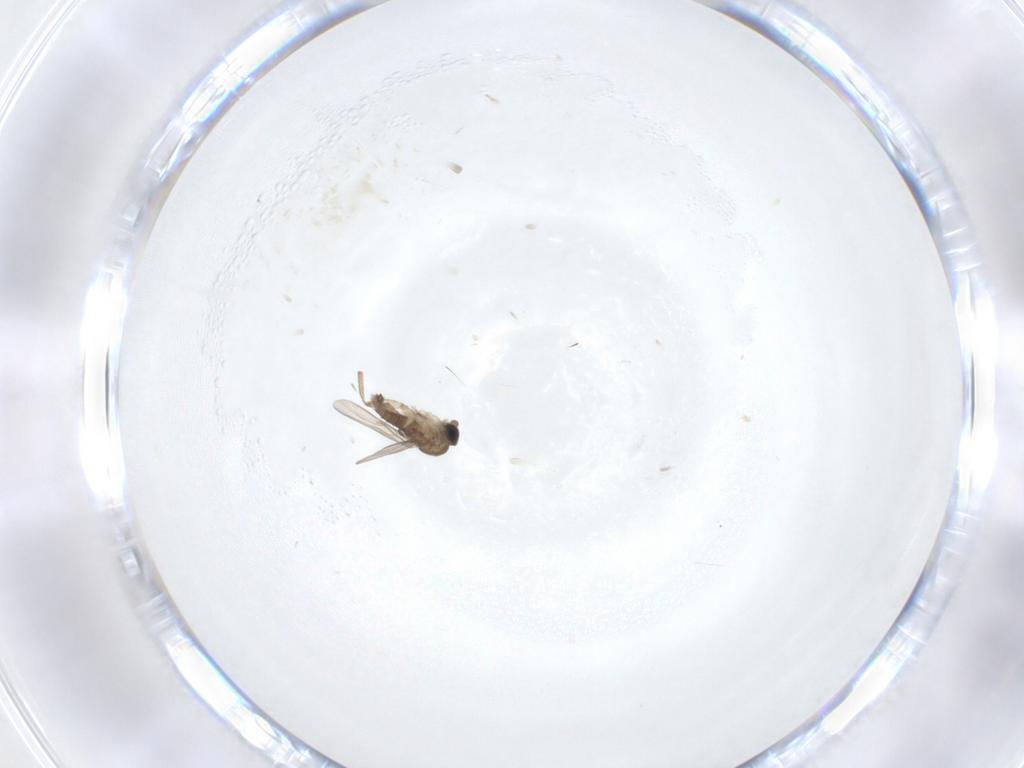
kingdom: Animalia
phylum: Arthropoda
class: Insecta
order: Diptera
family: Phoridae
